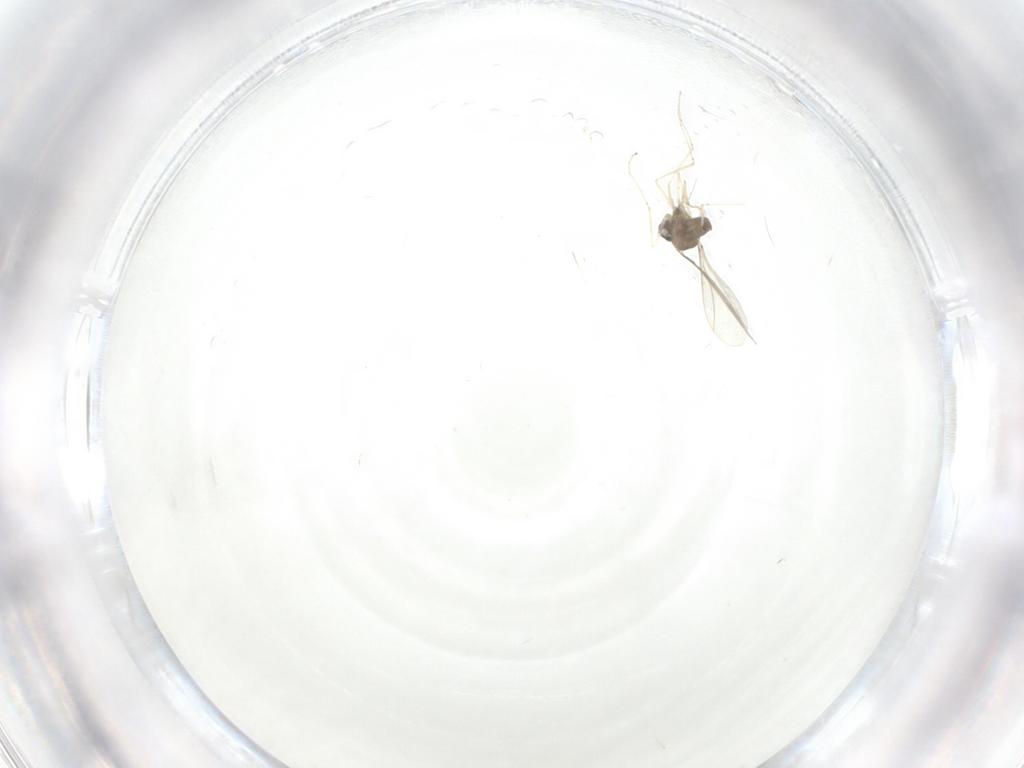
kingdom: Animalia
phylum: Arthropoda
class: Insecta
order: Diptera
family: Cecidomyiidae
